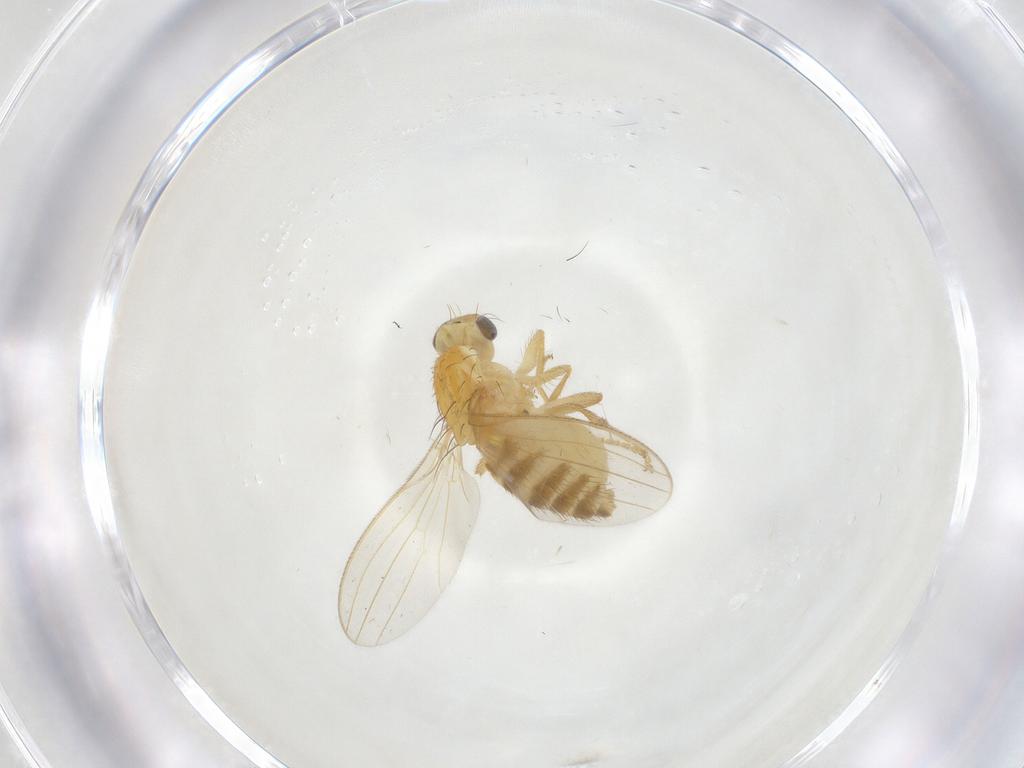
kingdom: Animalia
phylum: Arthropoda
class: Insecta
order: Diptera
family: Chyromyidae
